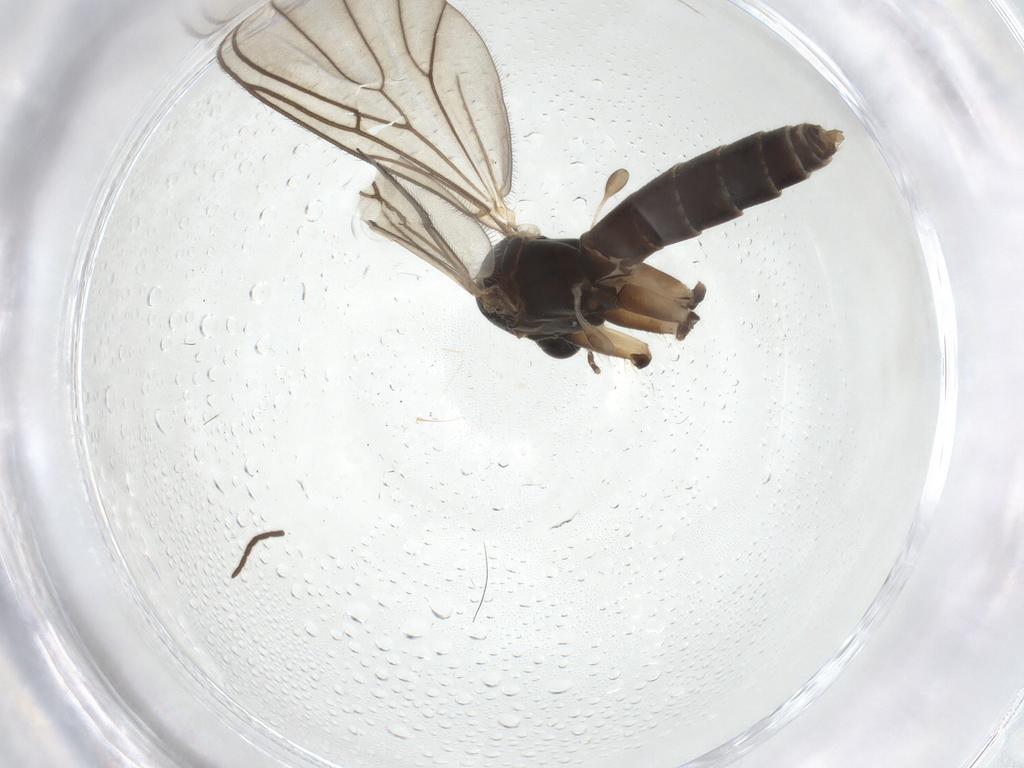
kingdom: Animalia
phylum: Arthropoda
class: Insecta
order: Diptera
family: Mycetophilidae
